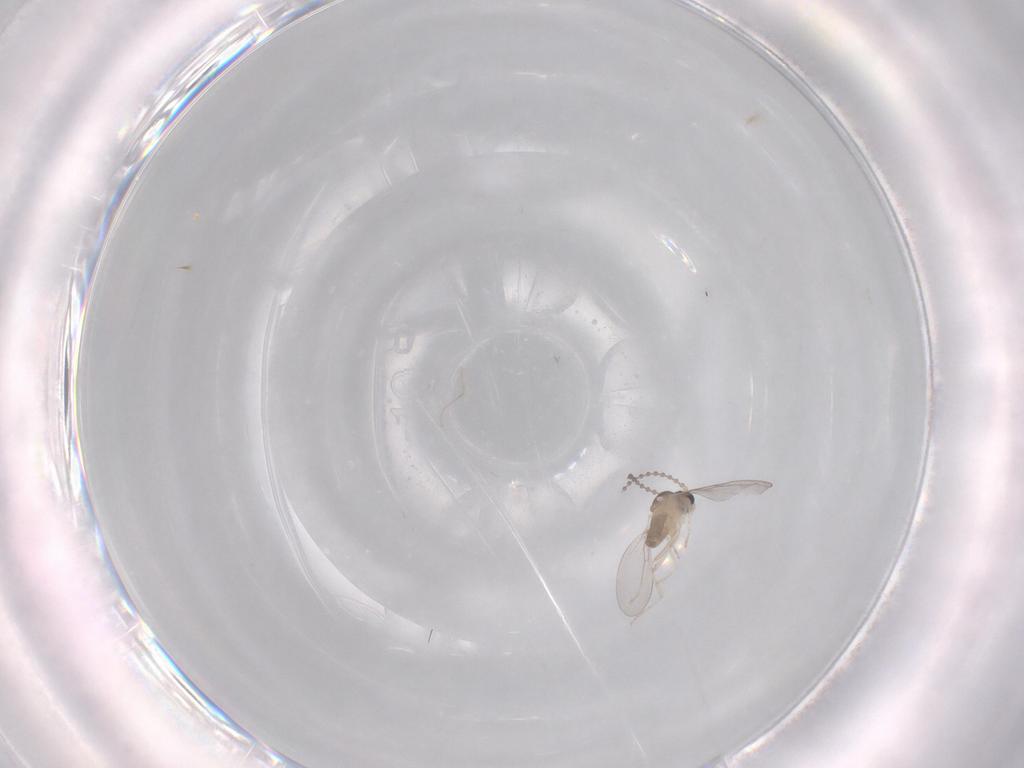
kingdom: Animalia
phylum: Arthropoda
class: Insecta
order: Diptera
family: Cecidomyiidae
